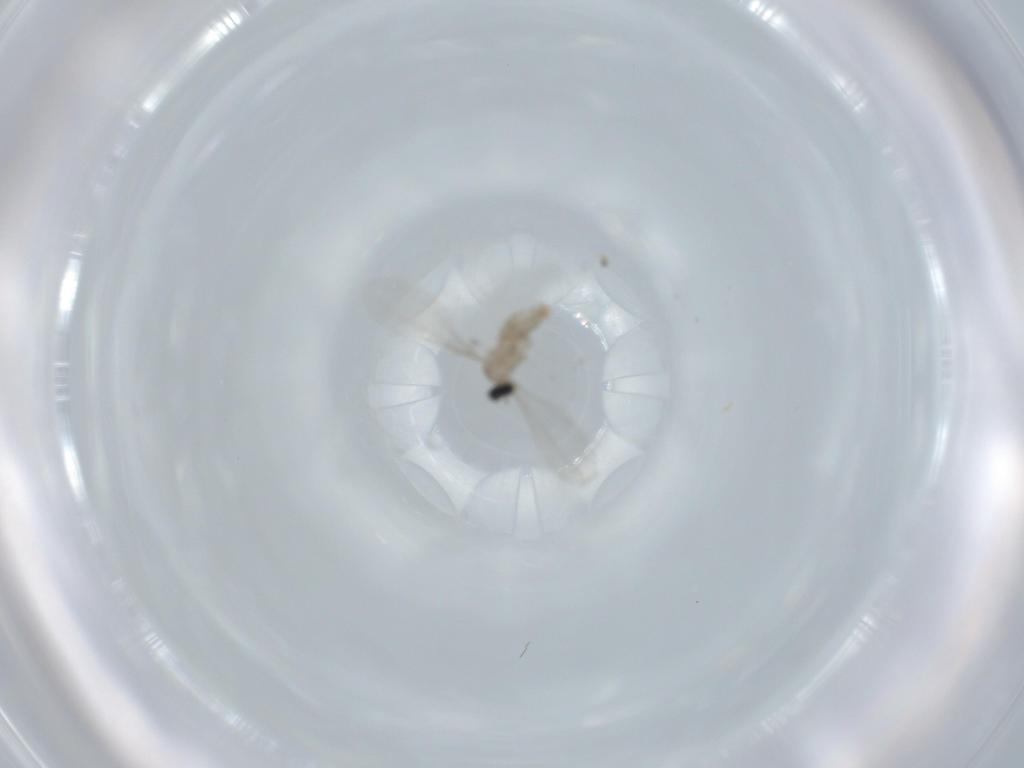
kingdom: Animalia
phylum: Arthropoda
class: Insecta
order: Diptera
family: Cecidomyiidae
